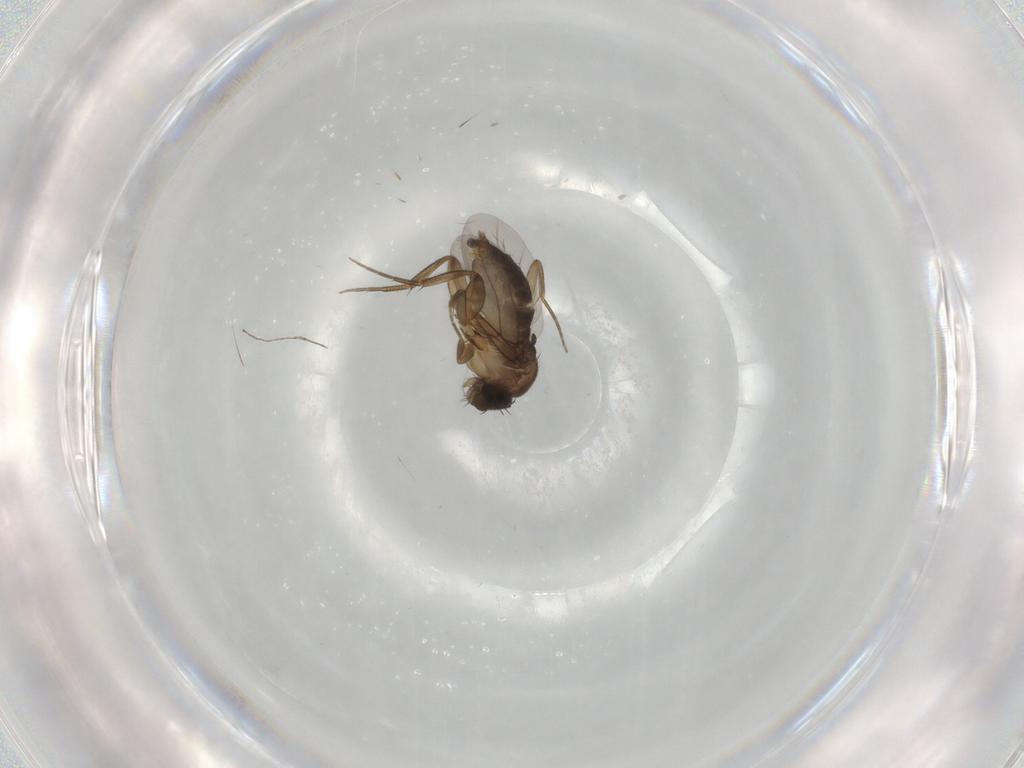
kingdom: Animalia
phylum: Arthropoda
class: Insecta
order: Diptera
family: Phoridae
